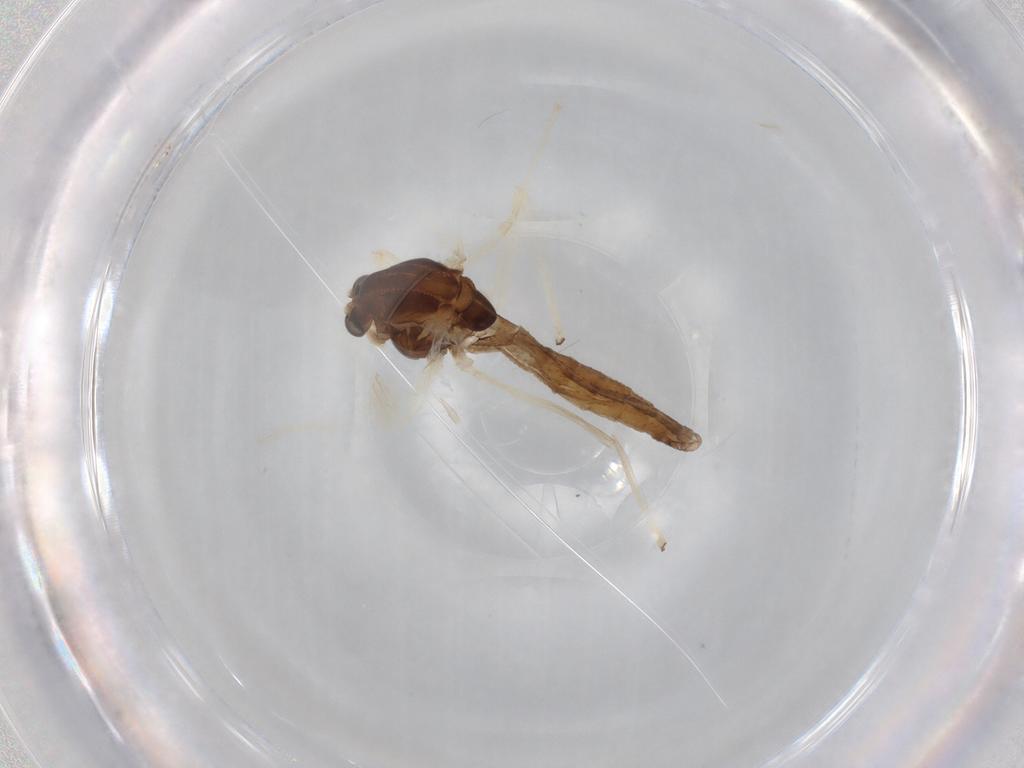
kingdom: Animalia
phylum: Arthropoda
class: Insecta
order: Diptera
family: Chironomidae
